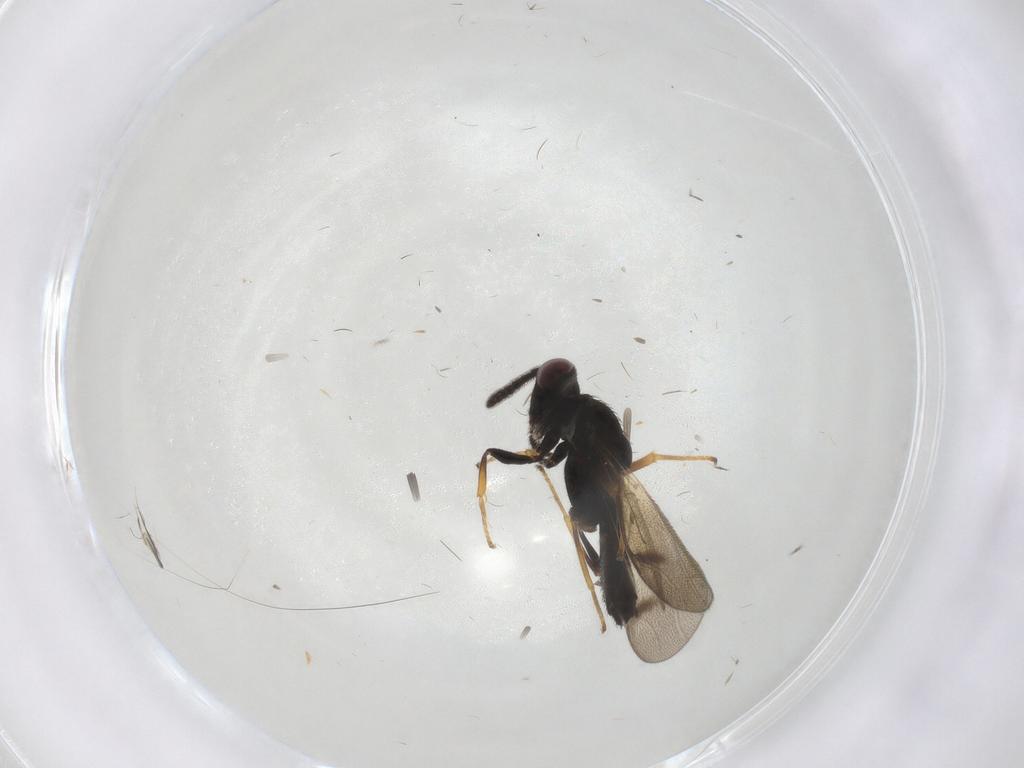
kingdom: Animalia
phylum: Arthropoda
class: Insecta
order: Hymenoptera
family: Pteromalidae
